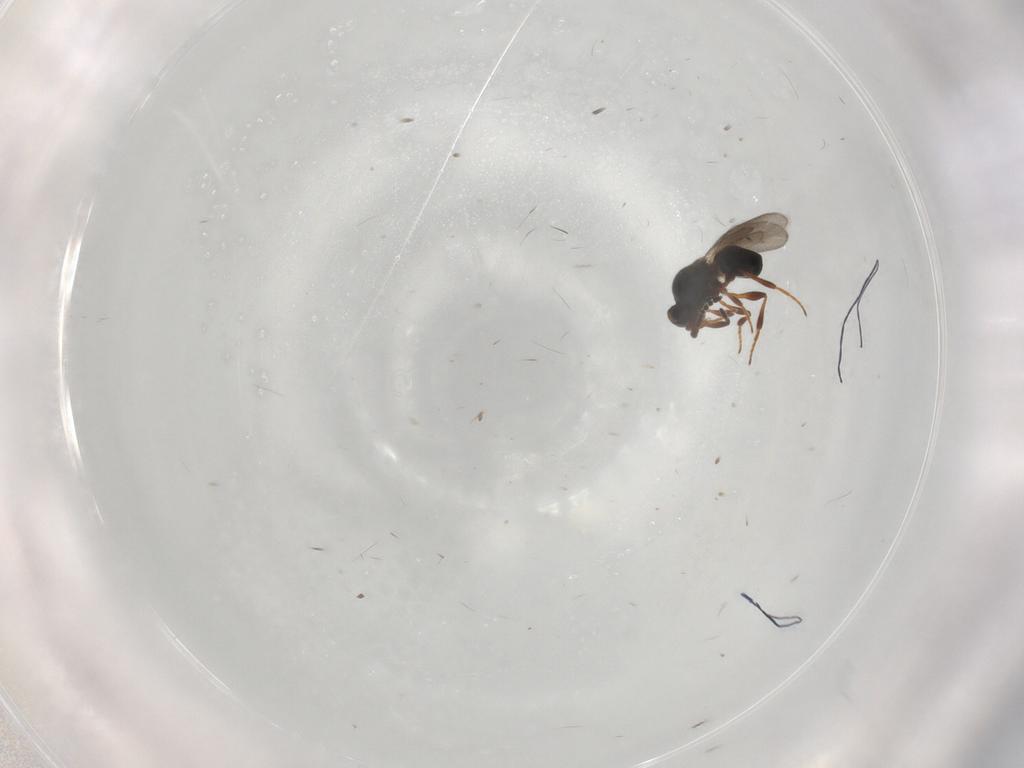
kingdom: Animalia
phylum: Arthropoda
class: Insecta
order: Hymenoptera
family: Platygastridae
